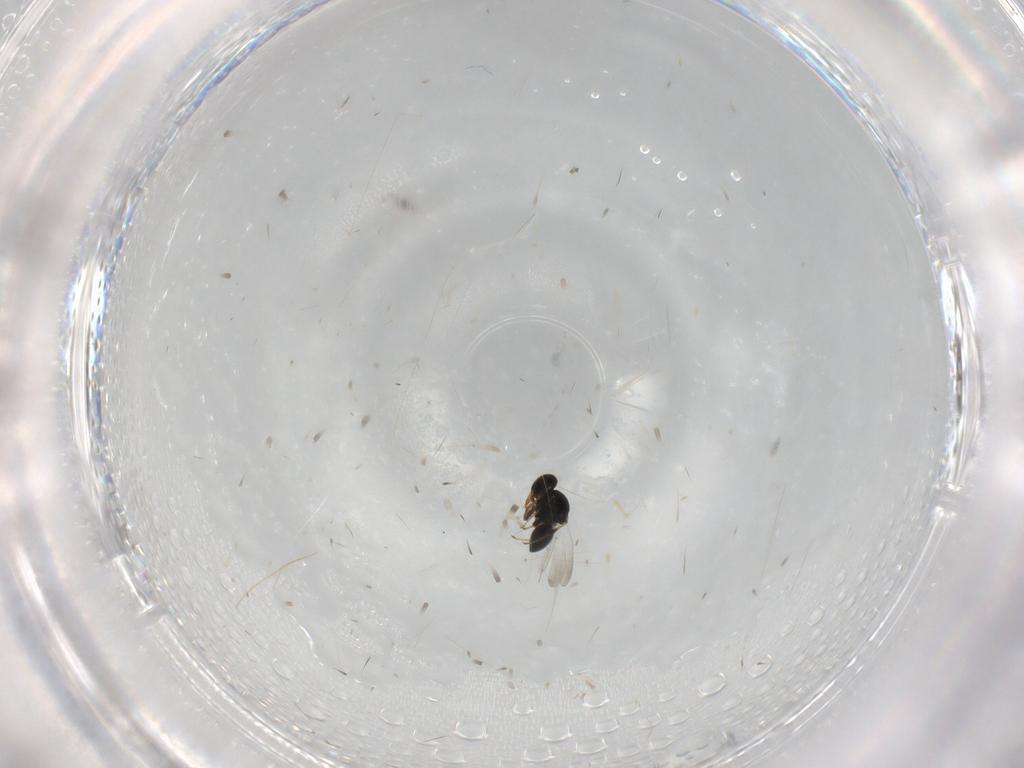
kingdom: Animalia
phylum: Arthropoda
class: Insecta
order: Hymenoptera
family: Platygastridae
